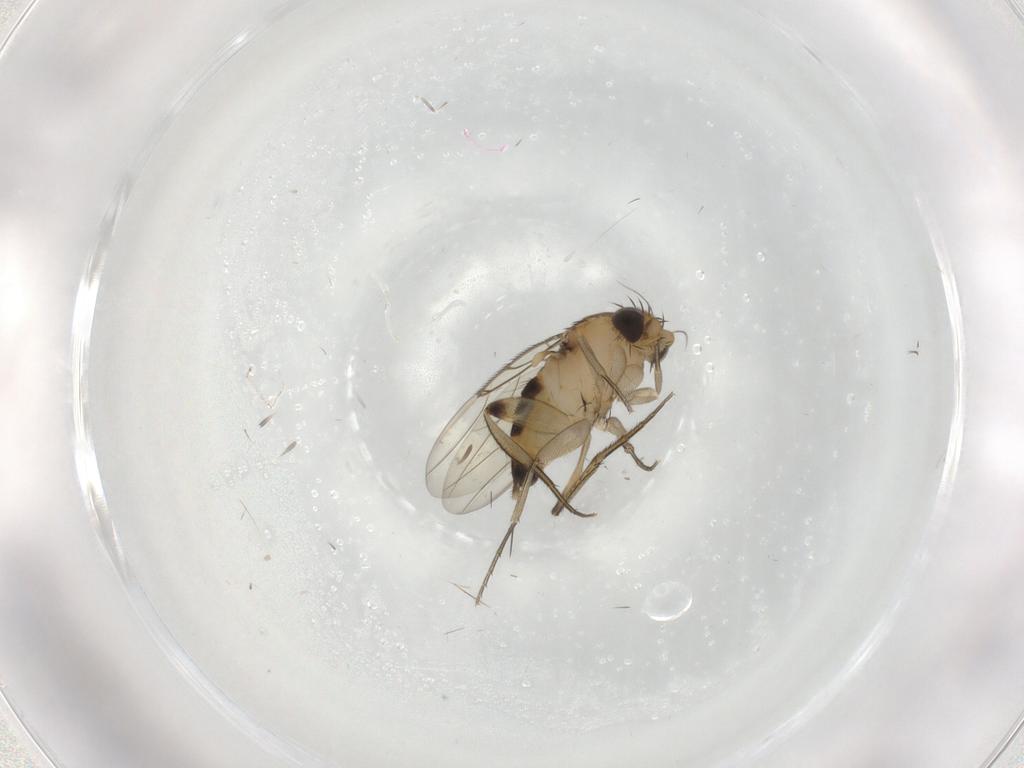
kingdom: Animalia
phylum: Arthropoda
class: Insecta
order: Diptera
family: Phoridae
